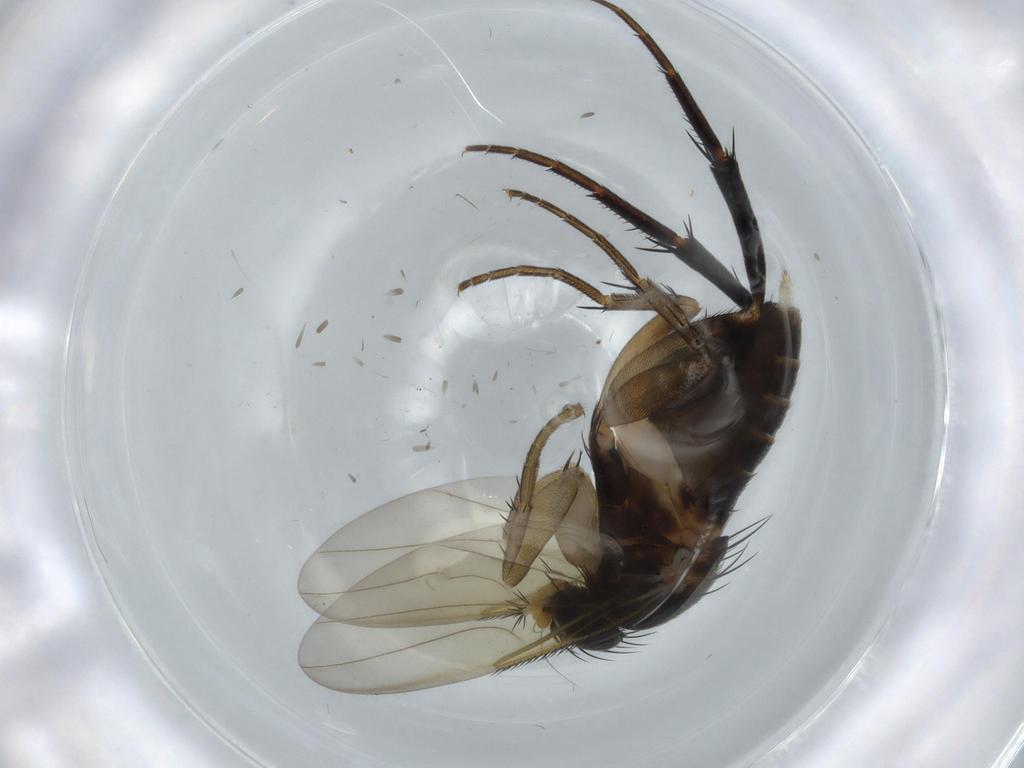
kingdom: Animalia
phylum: Arthropoda
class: Insecta
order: Diptera
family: Phoridae
